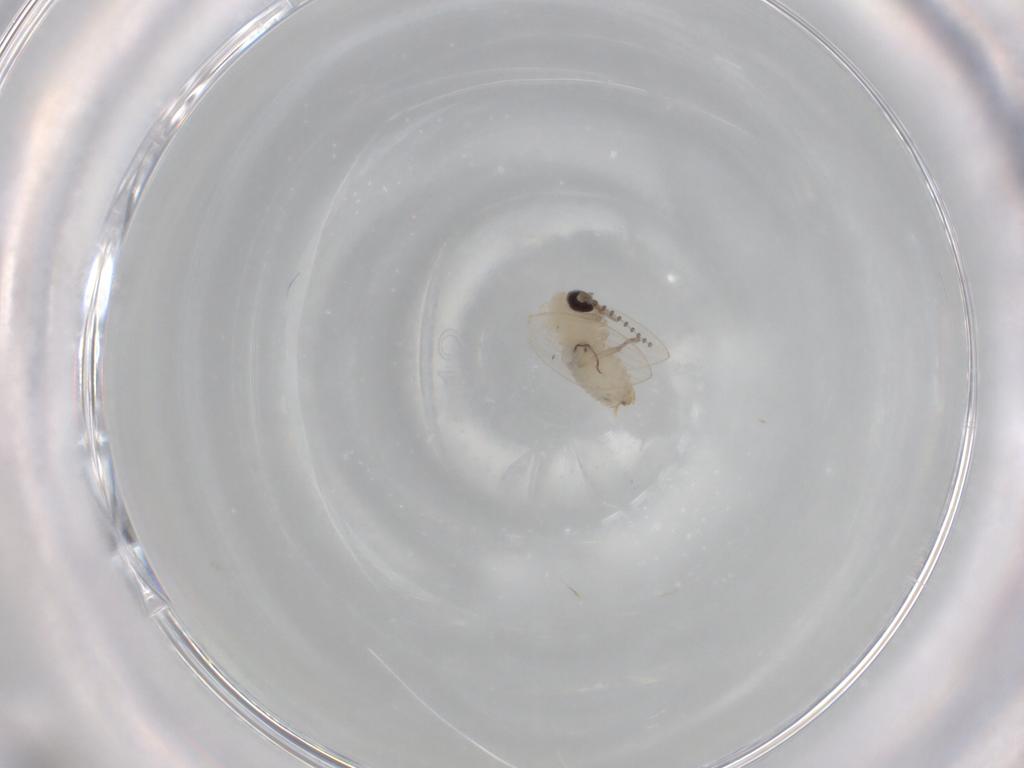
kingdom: Animalia
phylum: Arthropoda
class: Insecta
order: Diptera
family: Psychodidae
